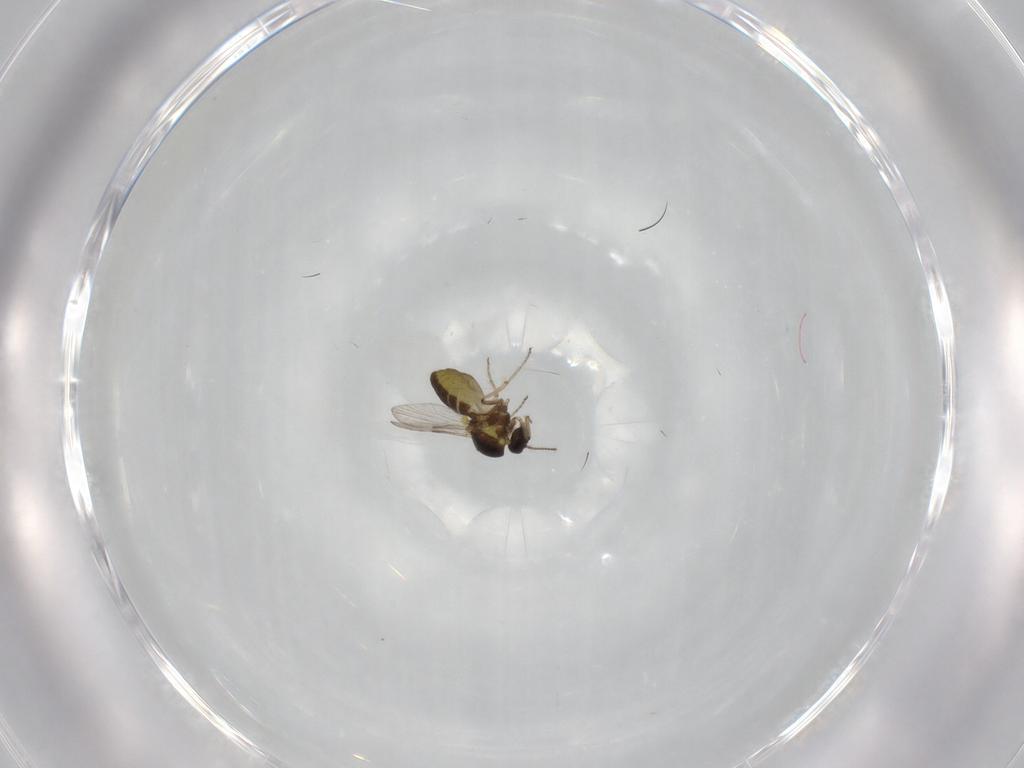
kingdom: Animalia
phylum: Arthropoda
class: Insecta
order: Diptera
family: Ceratopogonidae
